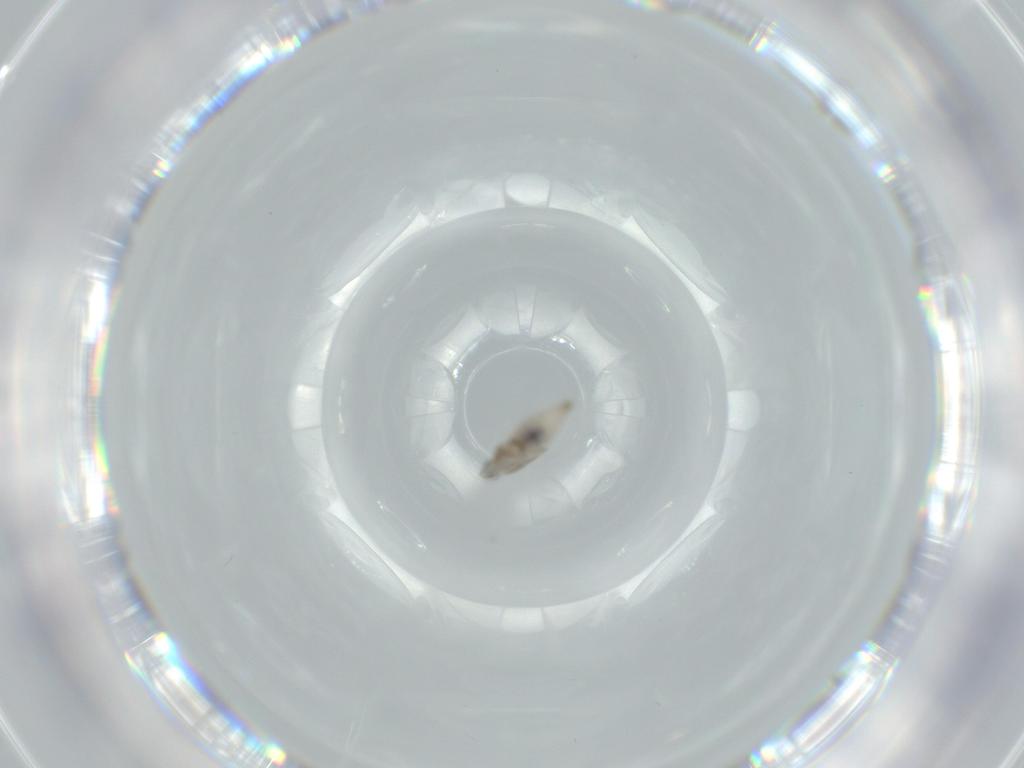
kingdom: Animalia
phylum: Arthropoda
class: Insecta
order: Diptera
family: Cecidomyiidae
